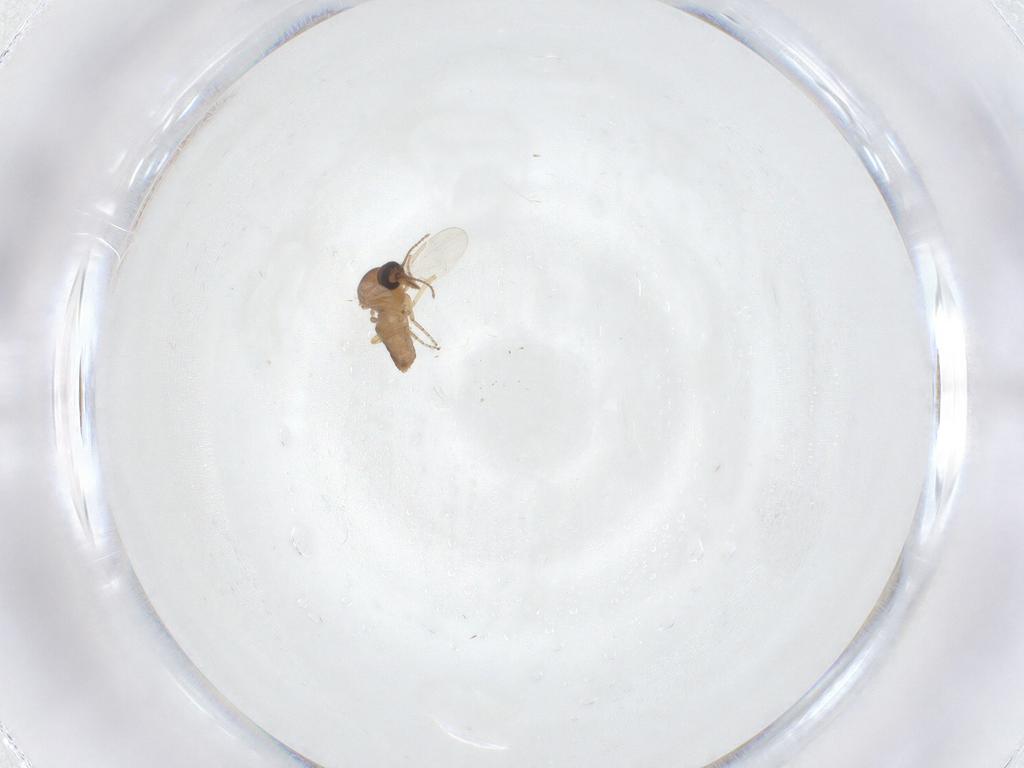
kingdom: Animalia
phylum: Arthropoda
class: Insecta
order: Diptera
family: Ceratopogonidae
